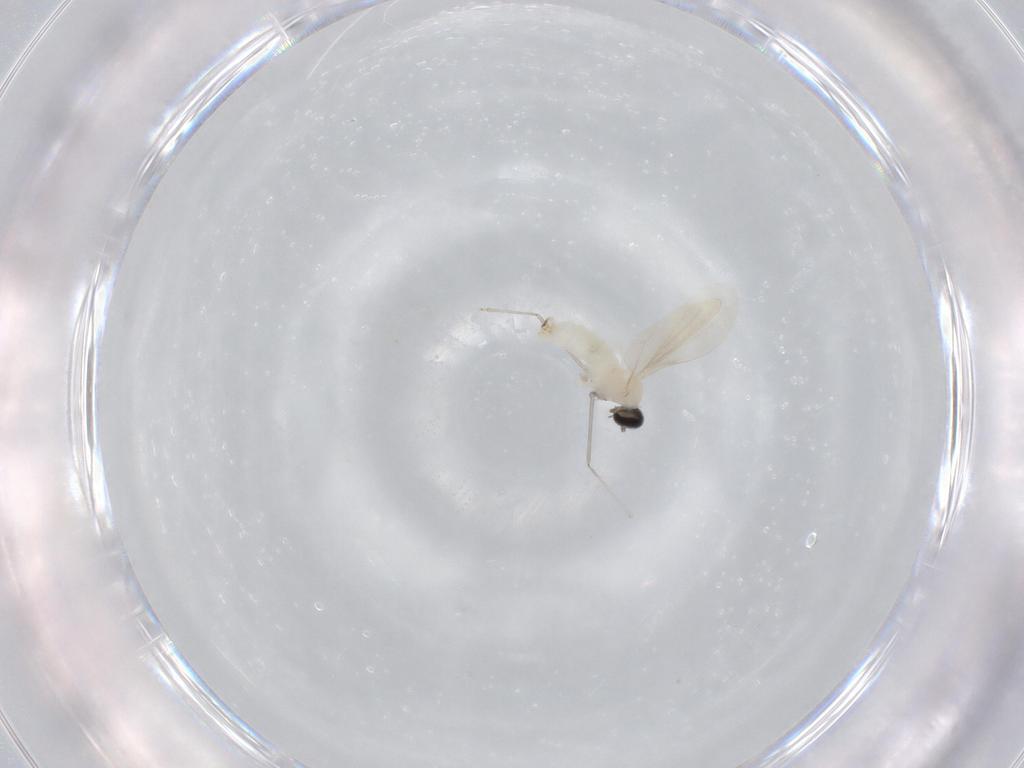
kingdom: Animalia
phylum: Arthropoda
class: Insecta
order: Diptera
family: Cecidomyiidae
